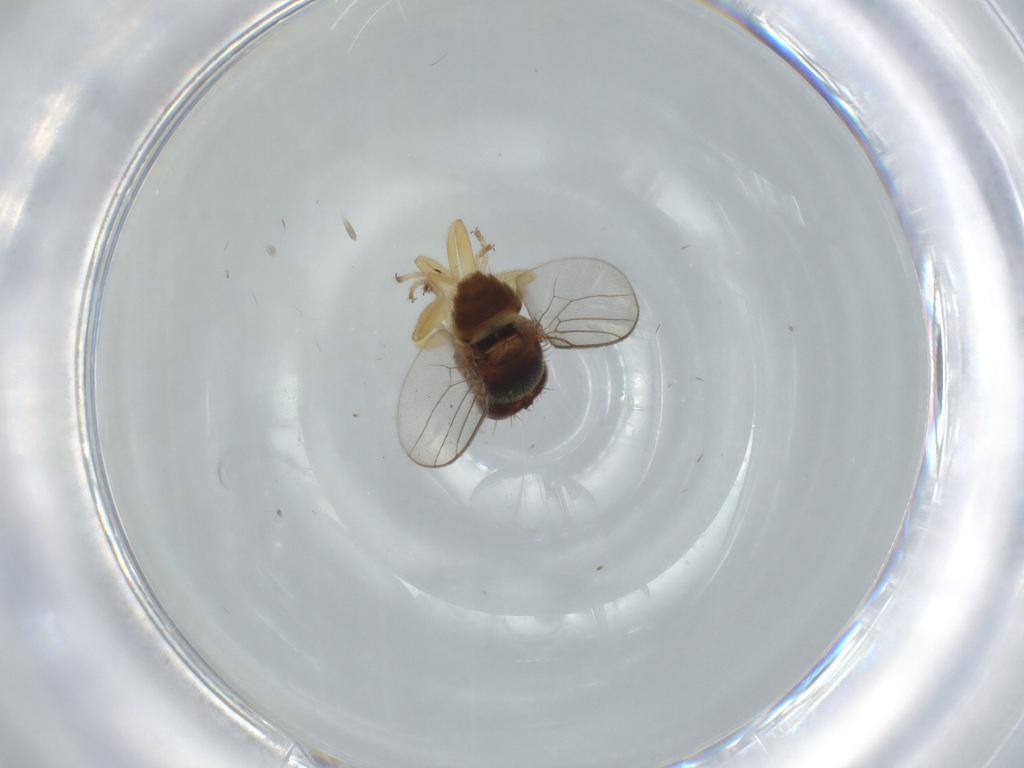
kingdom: Animalia
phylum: Arthropoda
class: Insecta
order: Diptera
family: Chloropidae
